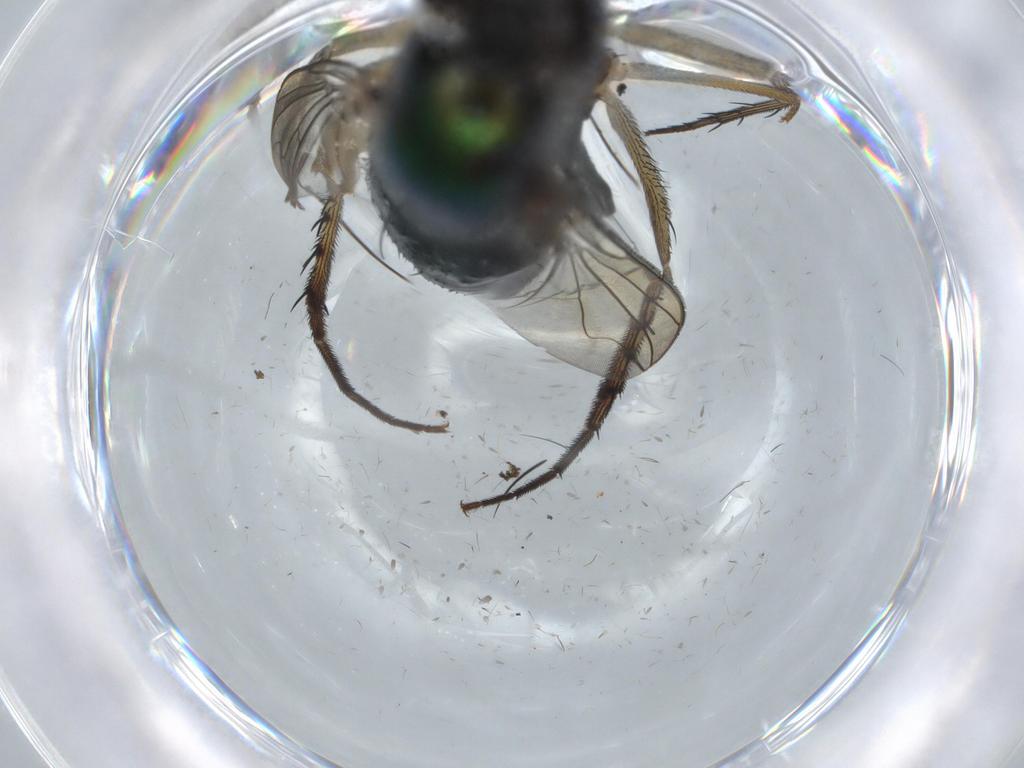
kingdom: Animalia
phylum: Arthropoda
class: Insecta
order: Diptera
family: Dolichopodidae
